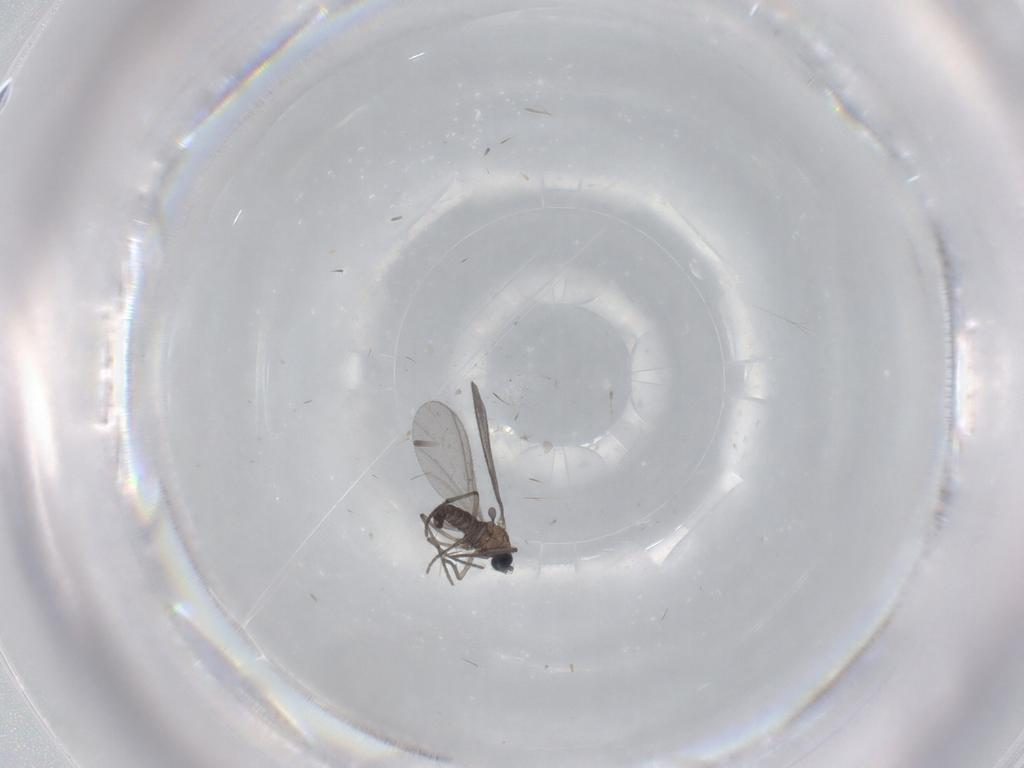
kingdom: Animalia
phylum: Arthropoda
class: Insecta
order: Diptera
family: Sciaridae
